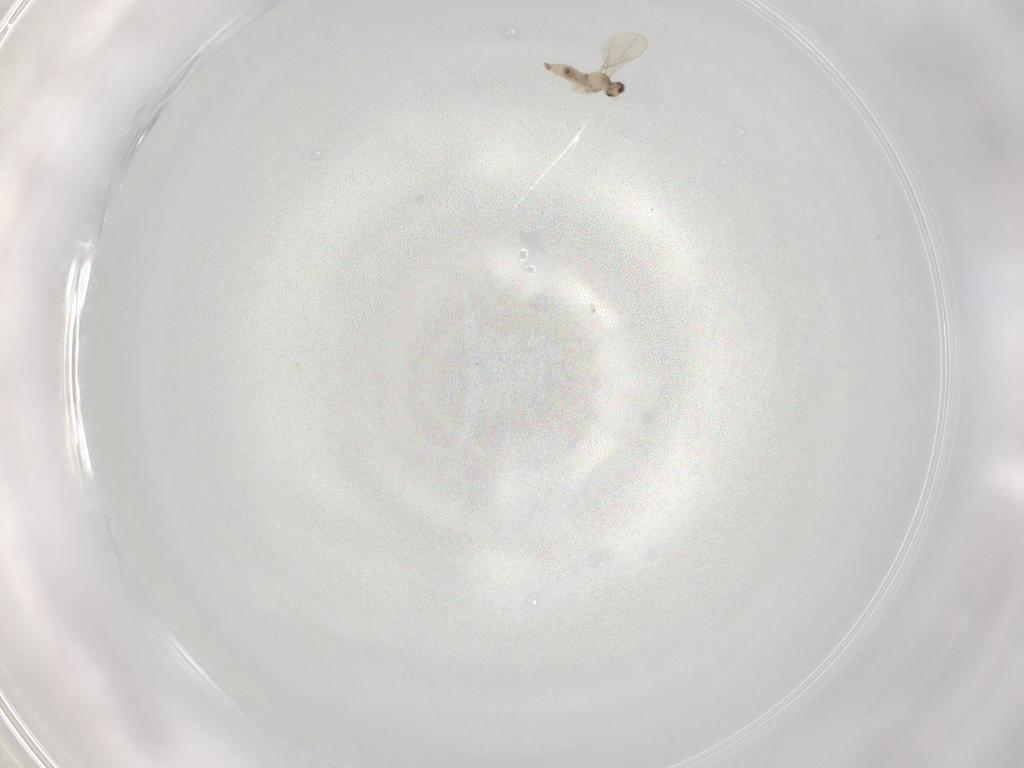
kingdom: Animalia
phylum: Arthropoda
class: Insecta
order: Diptera
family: Cecidomyiidae
